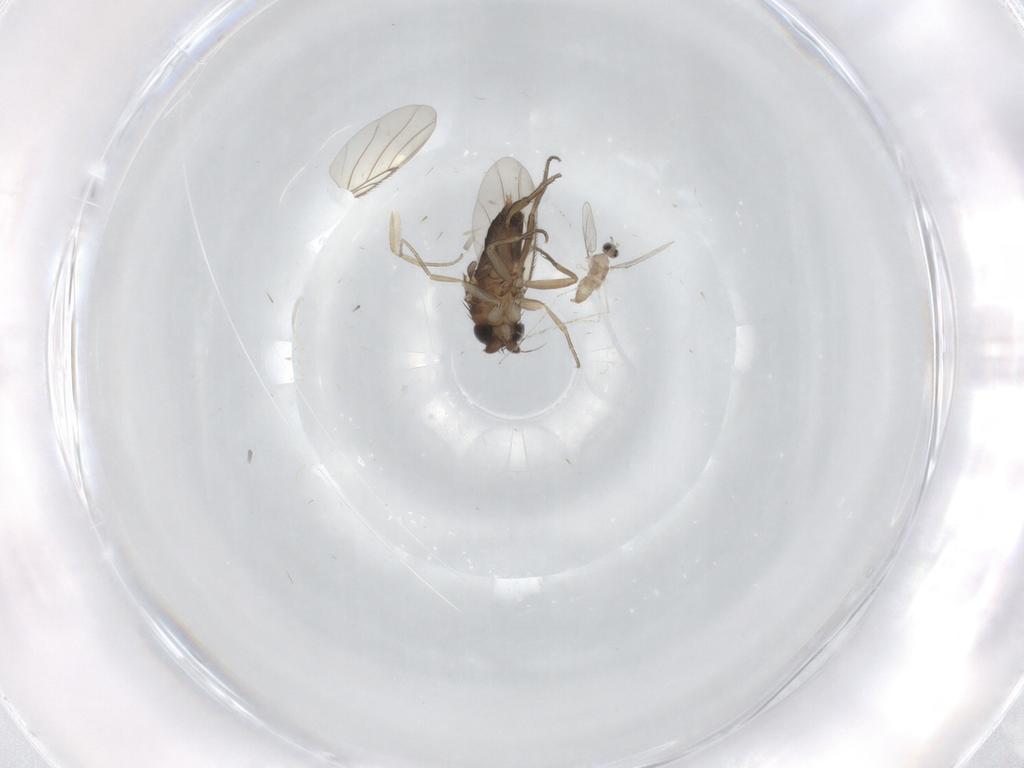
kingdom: Animalia
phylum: Arthropoda
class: Insecta
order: Diptera
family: Cecidomyiidae
